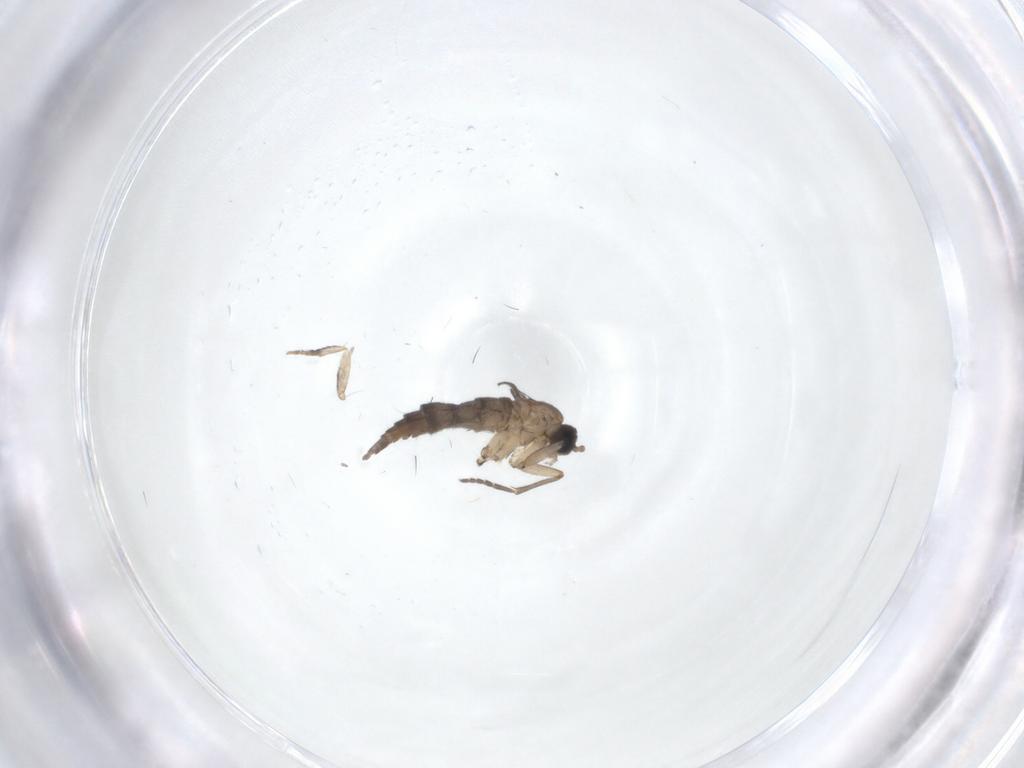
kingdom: Animalia
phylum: Arthropoda
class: Insecta
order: Diptera
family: Sciaridae
